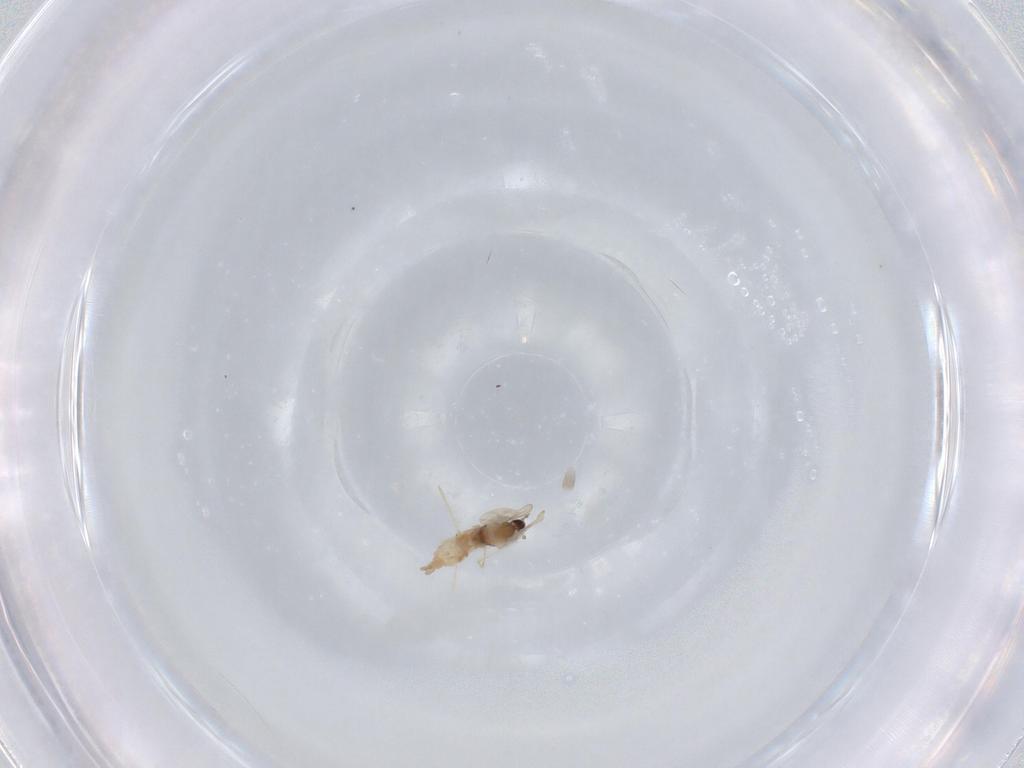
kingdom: Animalia
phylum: Arthropoda
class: Insecta
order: Diptera
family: Cecidomyiidae
